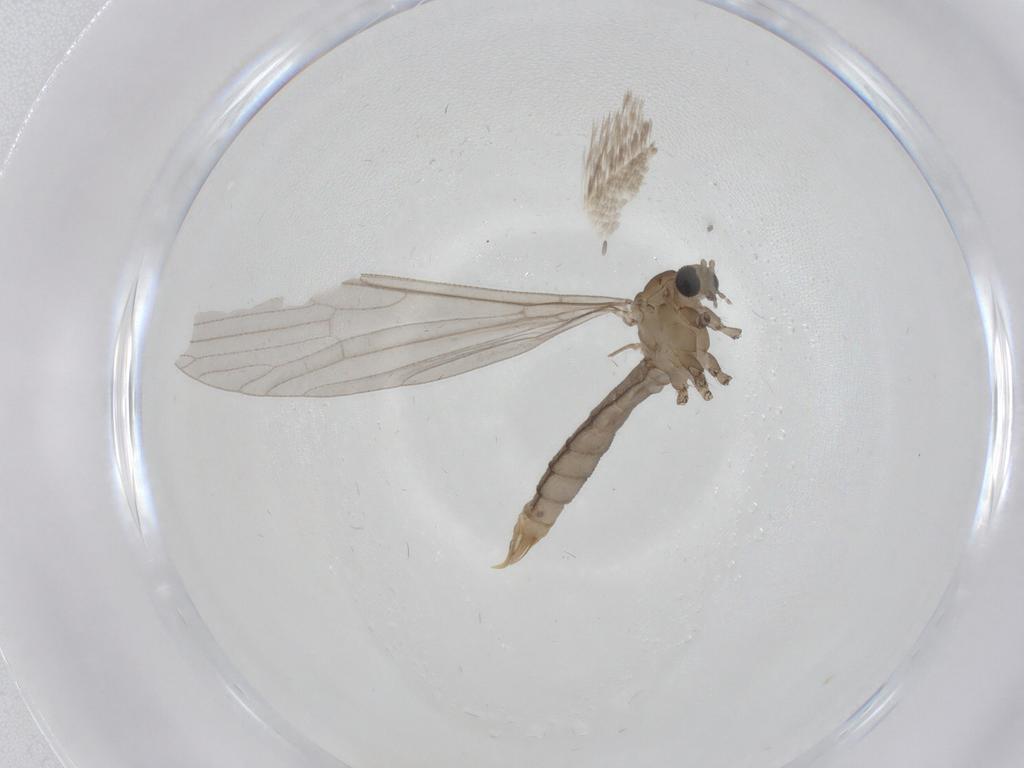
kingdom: Animalia
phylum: Arthropoda
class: Insecta
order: Diptera
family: Limoniidae
